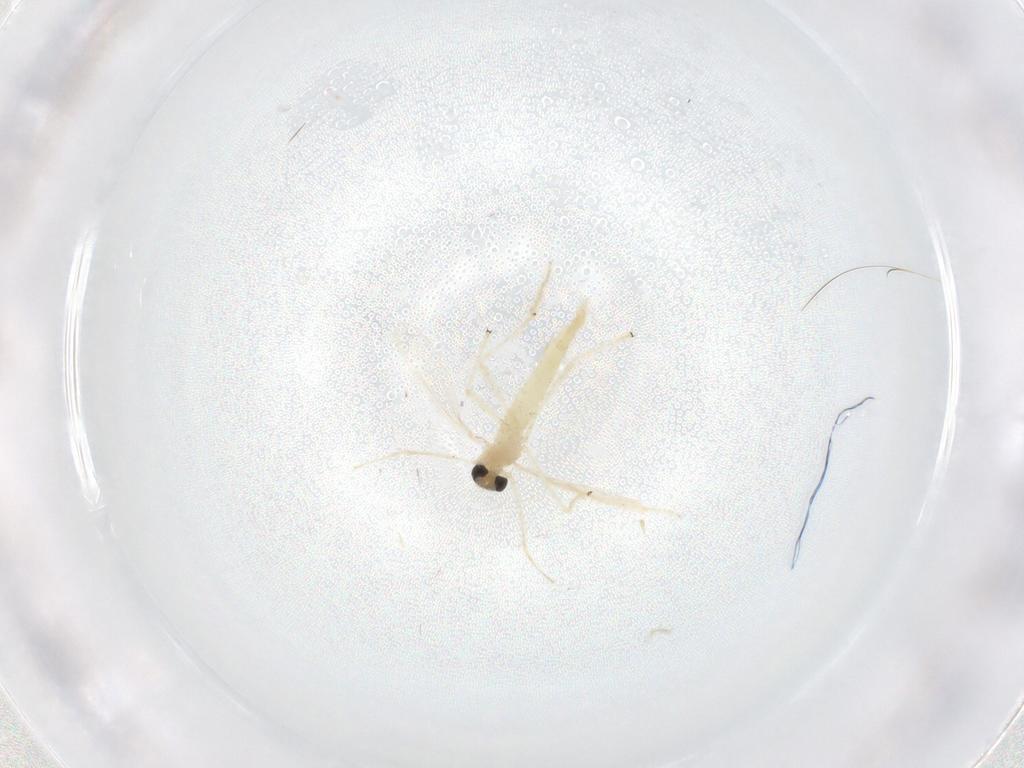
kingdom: Animalia
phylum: Arthropoda
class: Insecta
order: Diptera
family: Chironomidae
